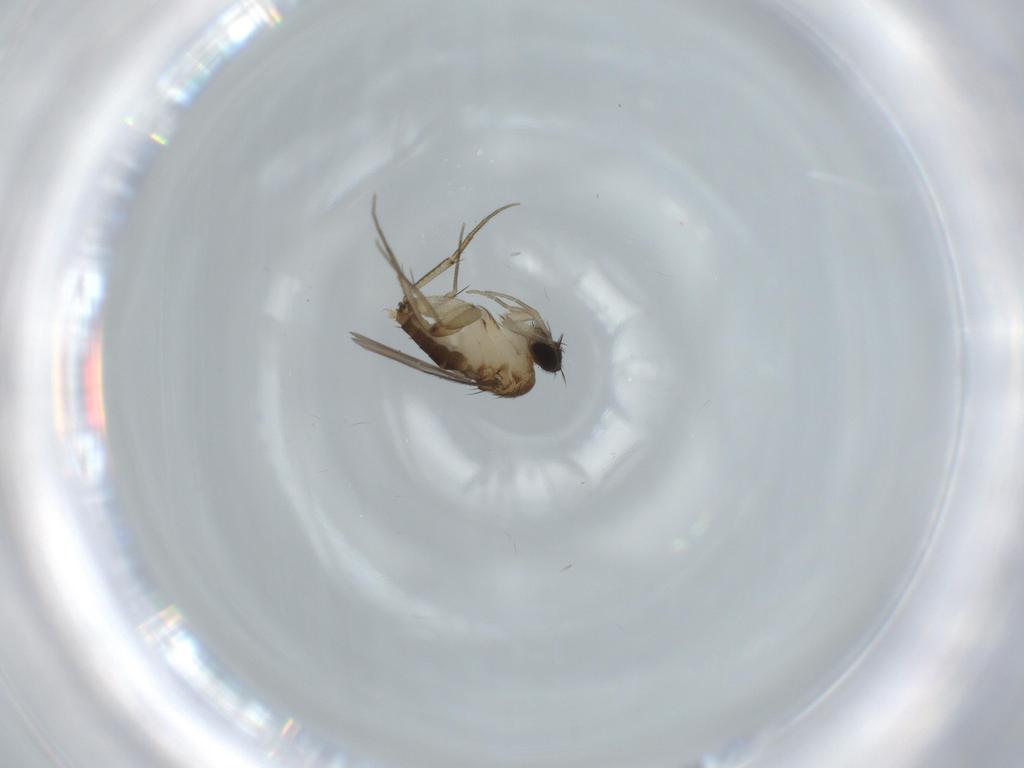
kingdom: Animalia
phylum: Arthropoda
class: Insecta
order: Diptera
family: Phoridae
